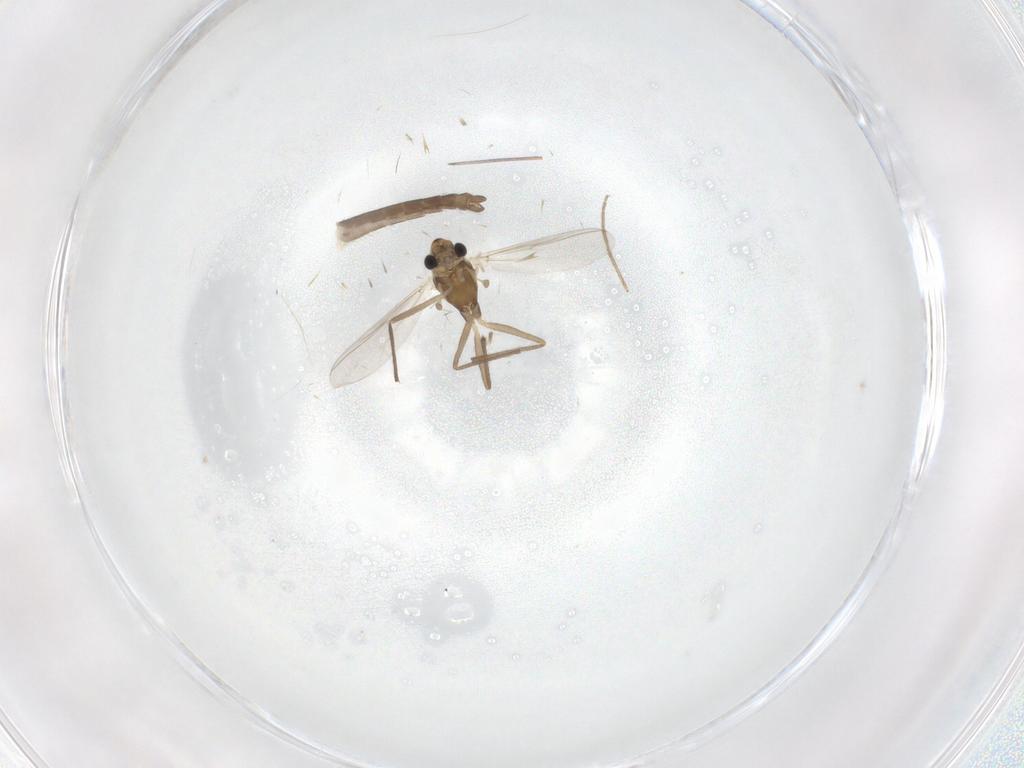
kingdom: Animalia
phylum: Arthropoda
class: Insecta
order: Diptera
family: Chironomidae
